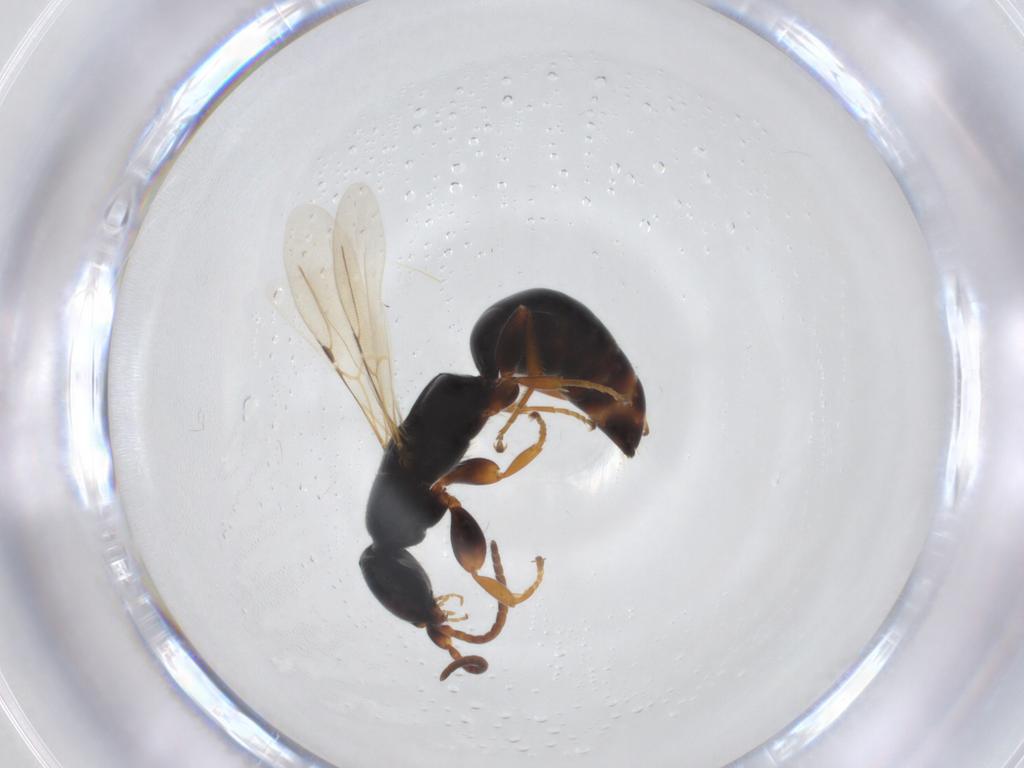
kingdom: Animalia
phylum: Arthropoda
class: Insecta
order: Hymenoptera
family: Bethylidae
